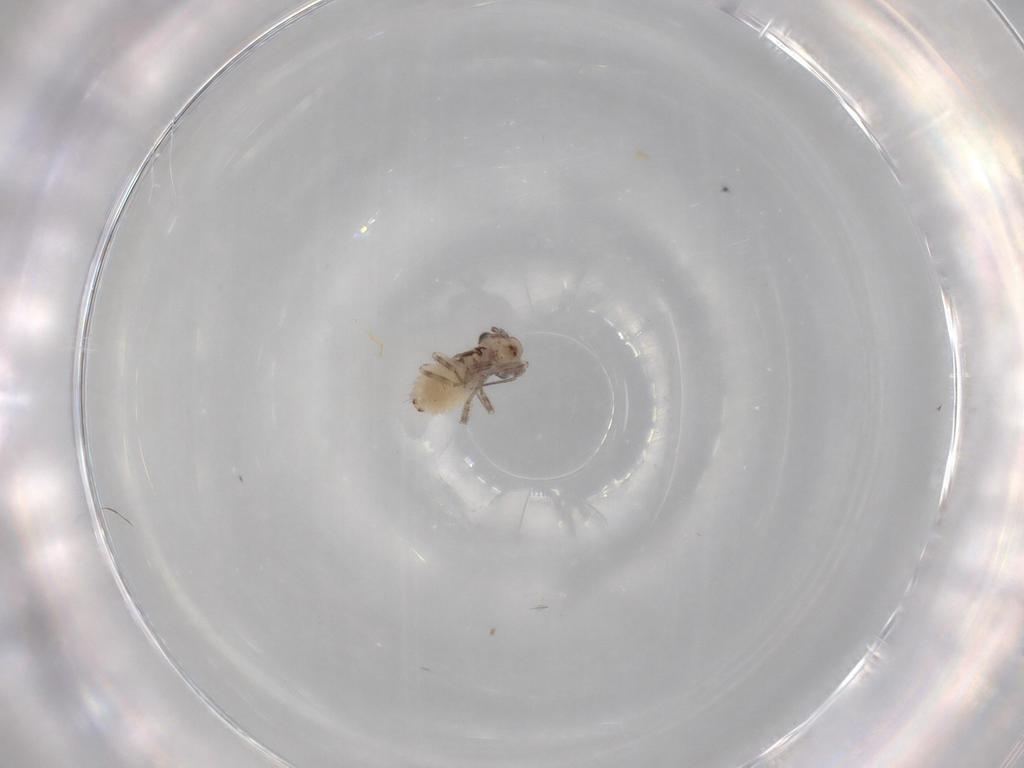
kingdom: Animalia
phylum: Arthropoda
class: Insecta
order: Psocodea
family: Lepidopsocidae
